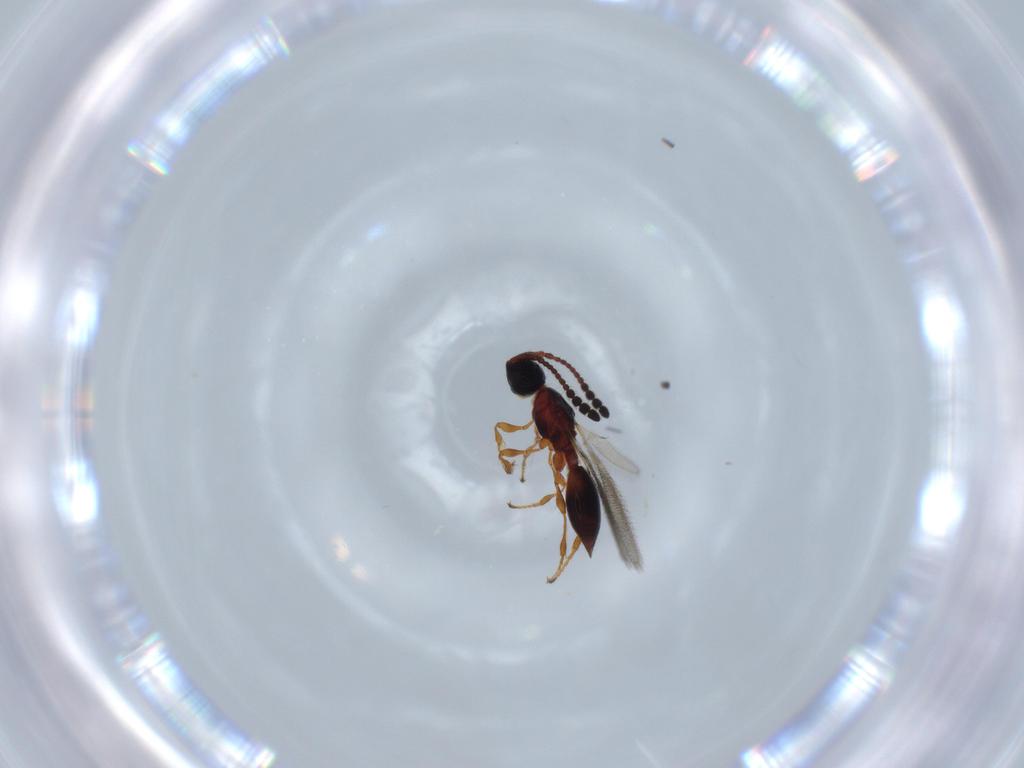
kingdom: Animalia
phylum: Arthropoda
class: Insecta
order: Hymenoptera
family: Diapriidae
